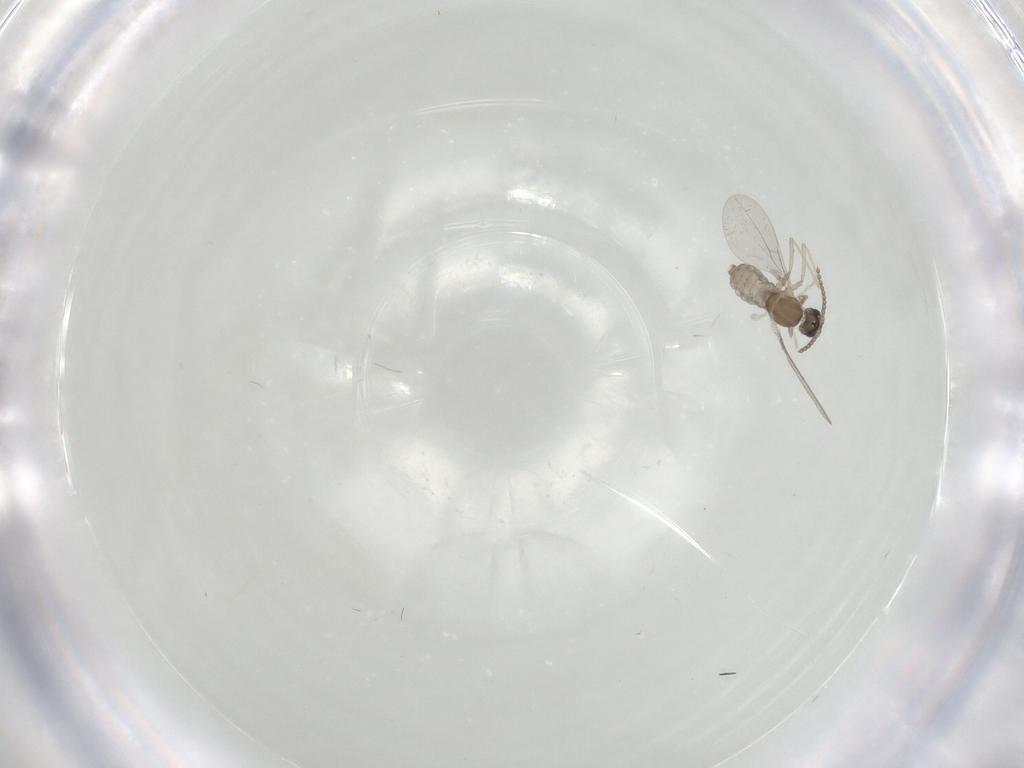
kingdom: Animalia
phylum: Arthropoda
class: Insecta
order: Diptera
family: Cecidomyiidae
